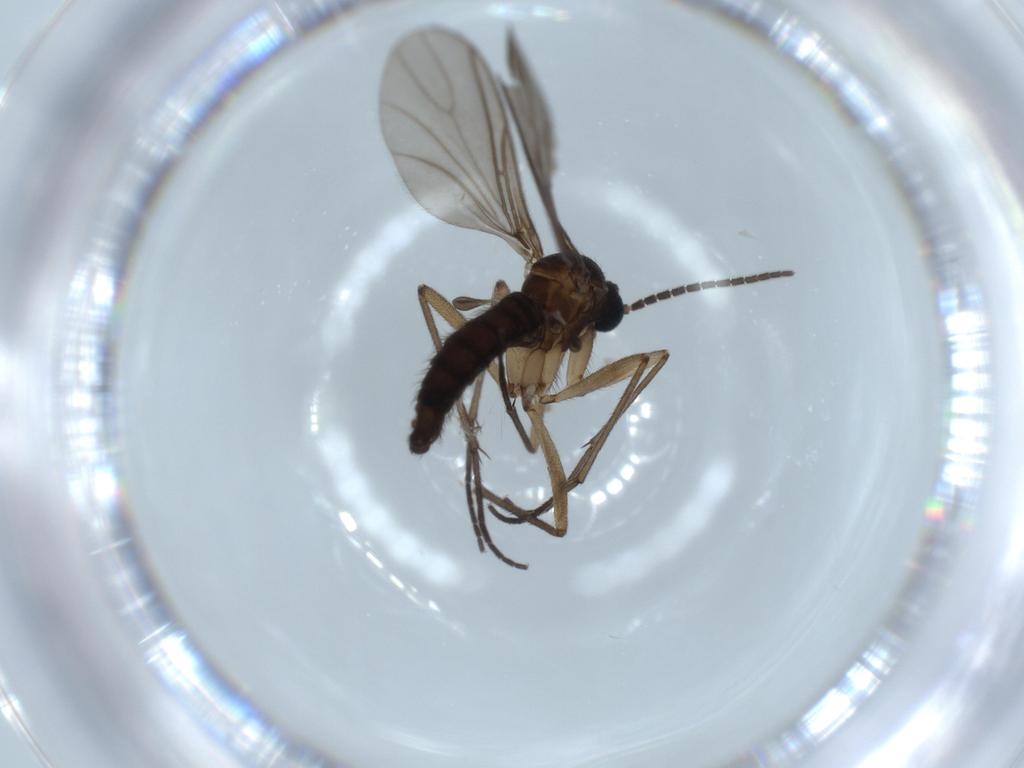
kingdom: Animalia
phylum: Arthropoda
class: Insecta
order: Diptera
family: Sciaridae
